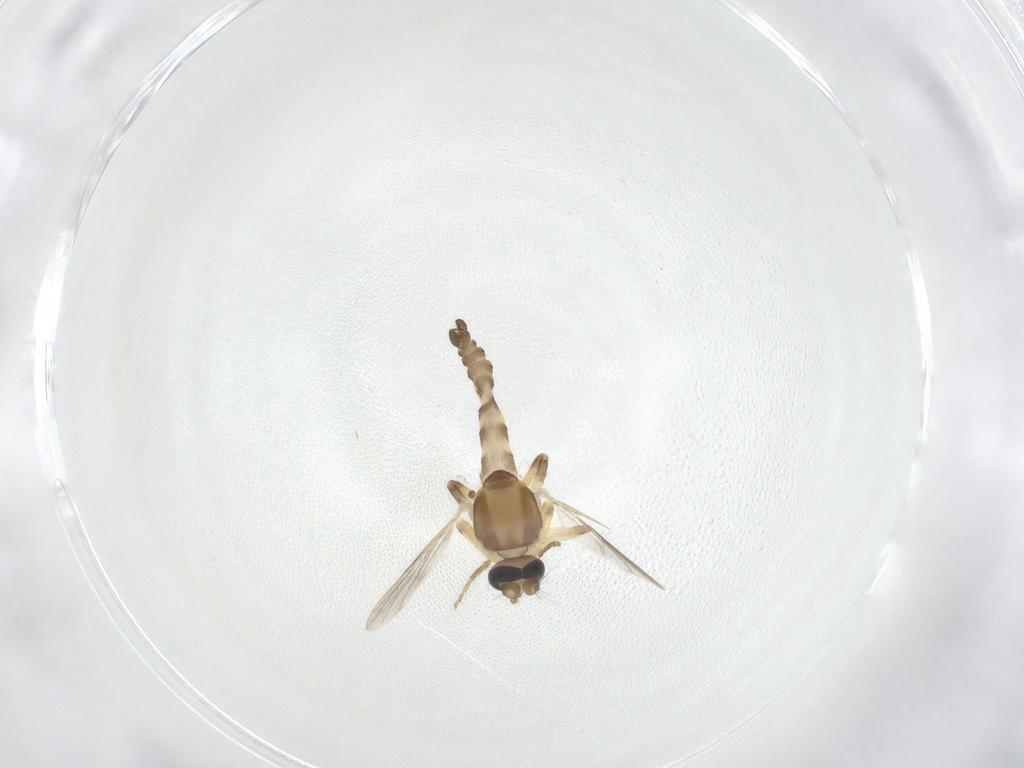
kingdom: Animalia
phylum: Arthropoda
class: Insecta
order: Diptera
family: Ceratopogonidae
